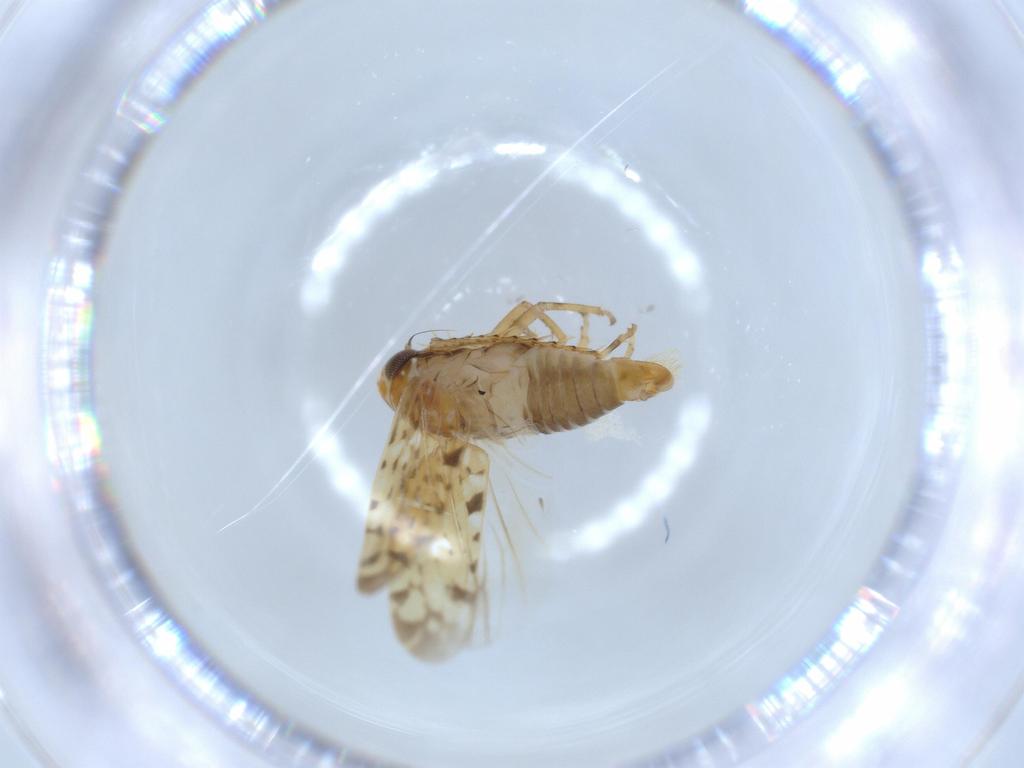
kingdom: Animalia
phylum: Arthropoda
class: Insecta
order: Hemiptera
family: Cicadellidae
